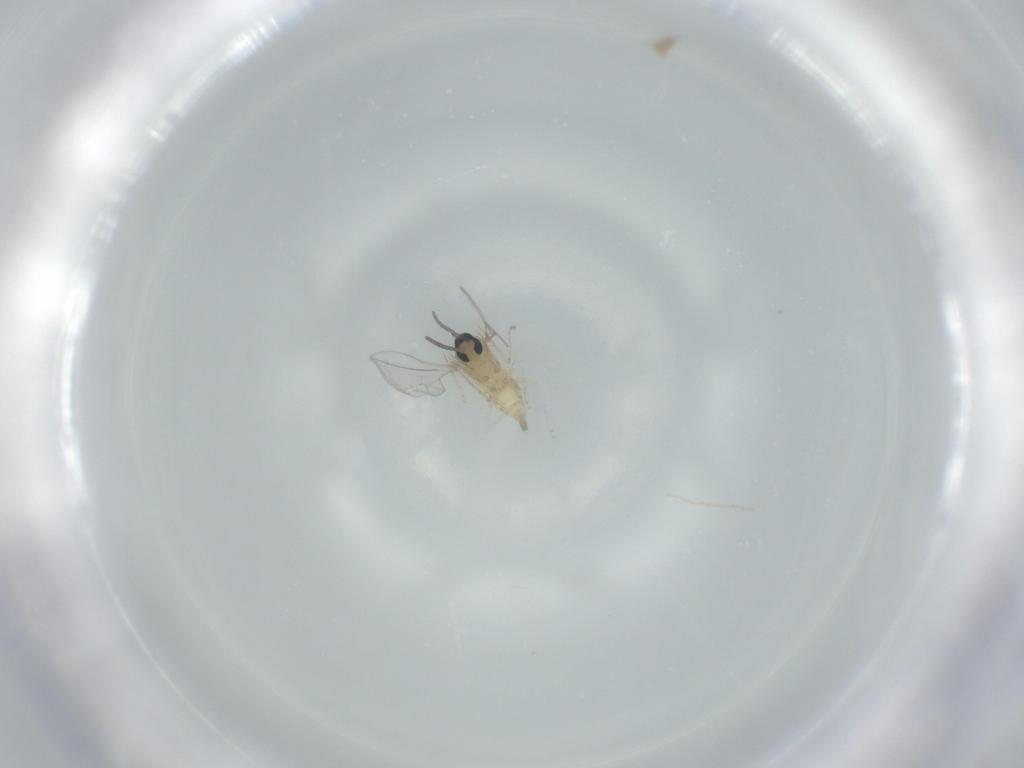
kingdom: Animalia
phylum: Arthropoda
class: Insecta
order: Diptera
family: Cecidomyiidae
